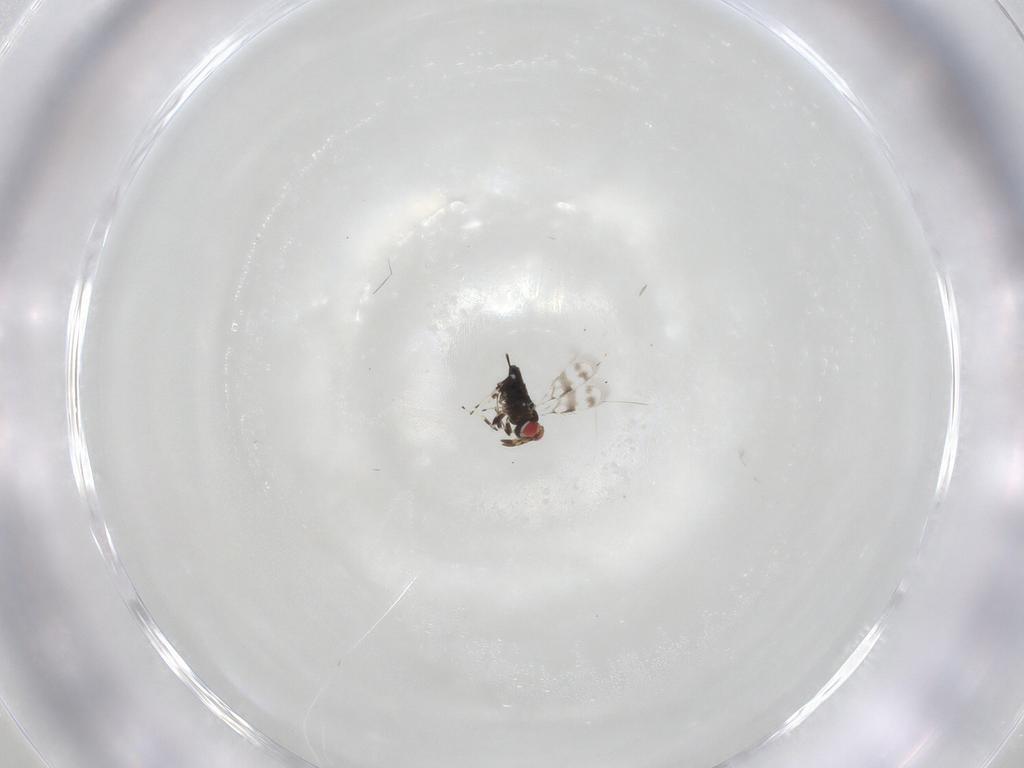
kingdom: Animalia
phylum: Arthropoda
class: Insecta
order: Hymenoptera
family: Azotidae
